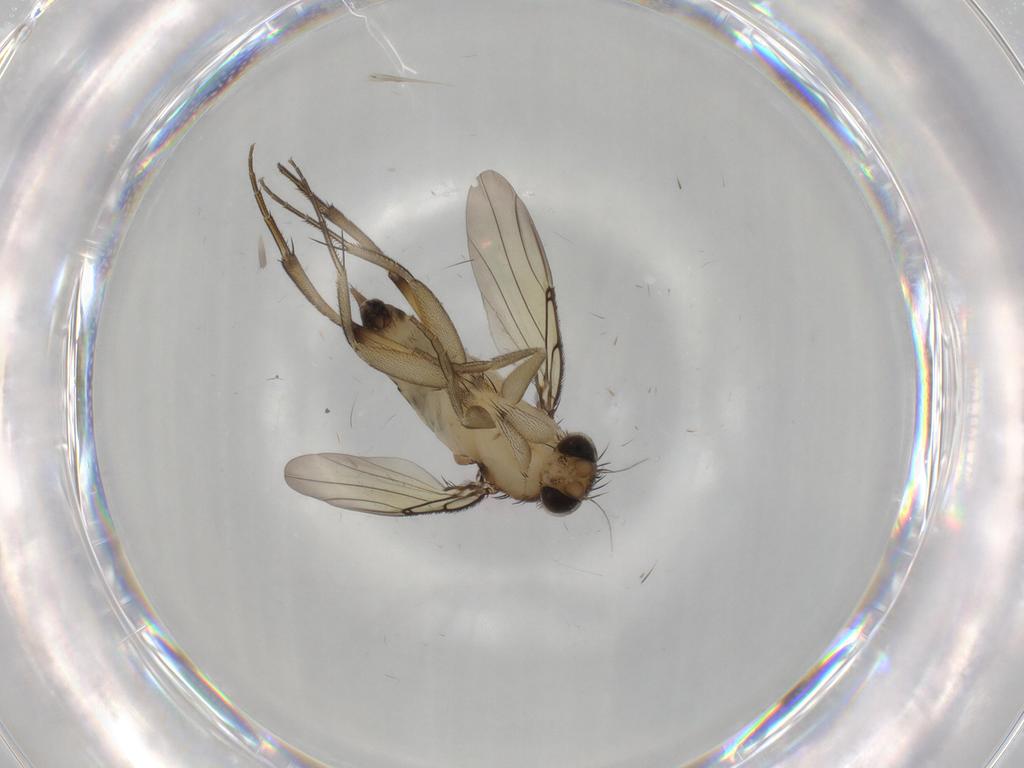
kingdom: Animalia
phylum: Arthropoda
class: Insecta
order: Diptera
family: Phoridae
